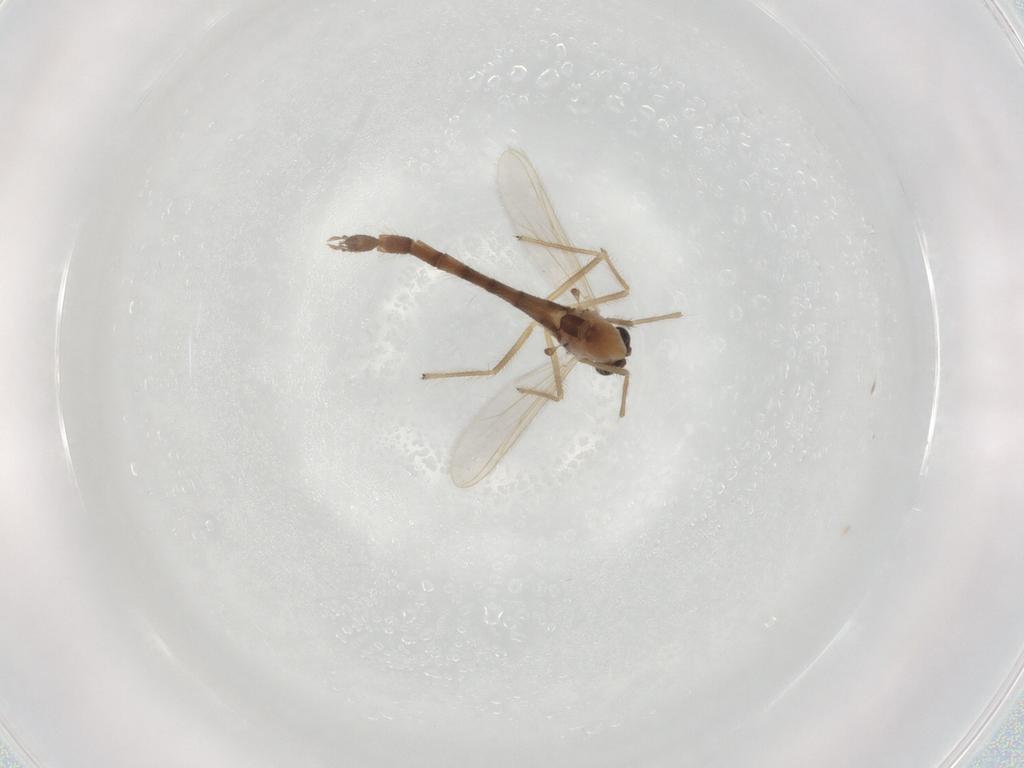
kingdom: Animalia
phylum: Arthropoda
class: Insecta
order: Diptera
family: Chironomidae
